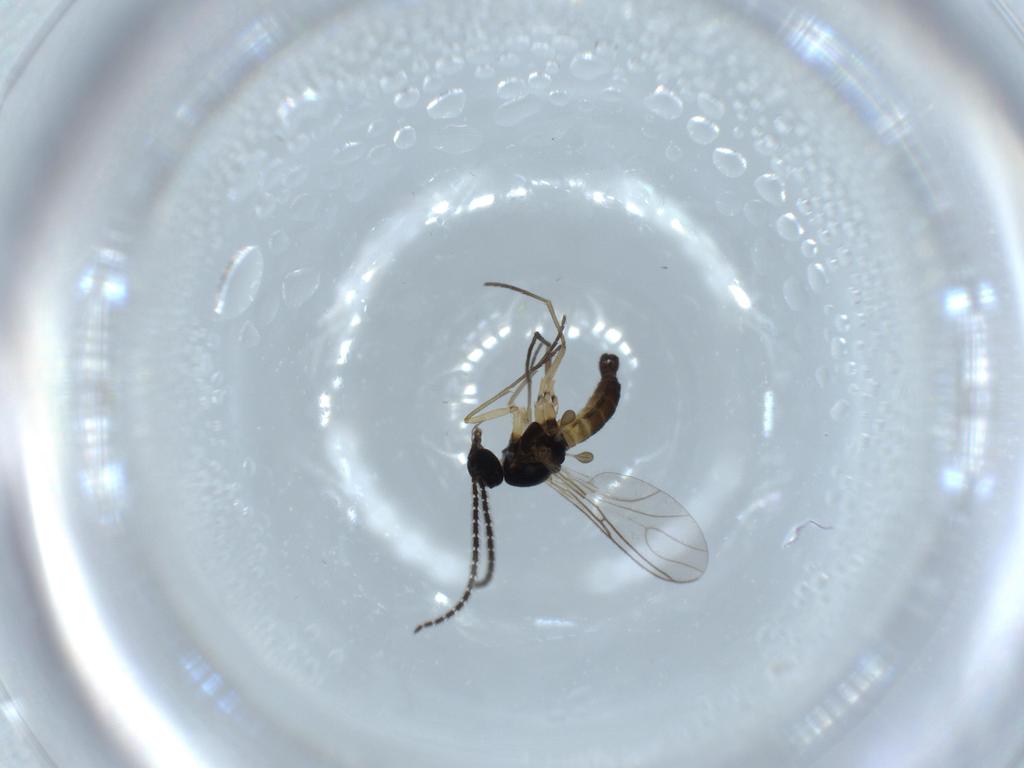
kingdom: Animalia
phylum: Arthropoda
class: Insecta
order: Diptera
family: Sciaridae
